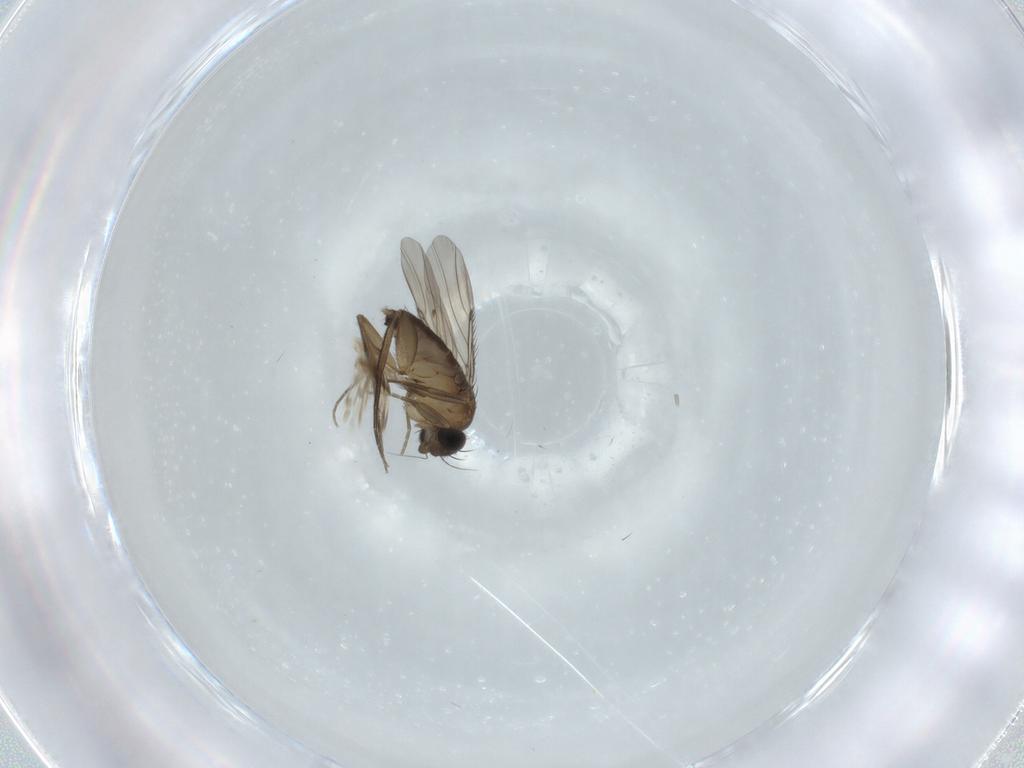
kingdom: Animalia
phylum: Arthropoda
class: Insecta
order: Diptera
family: Phoridae
